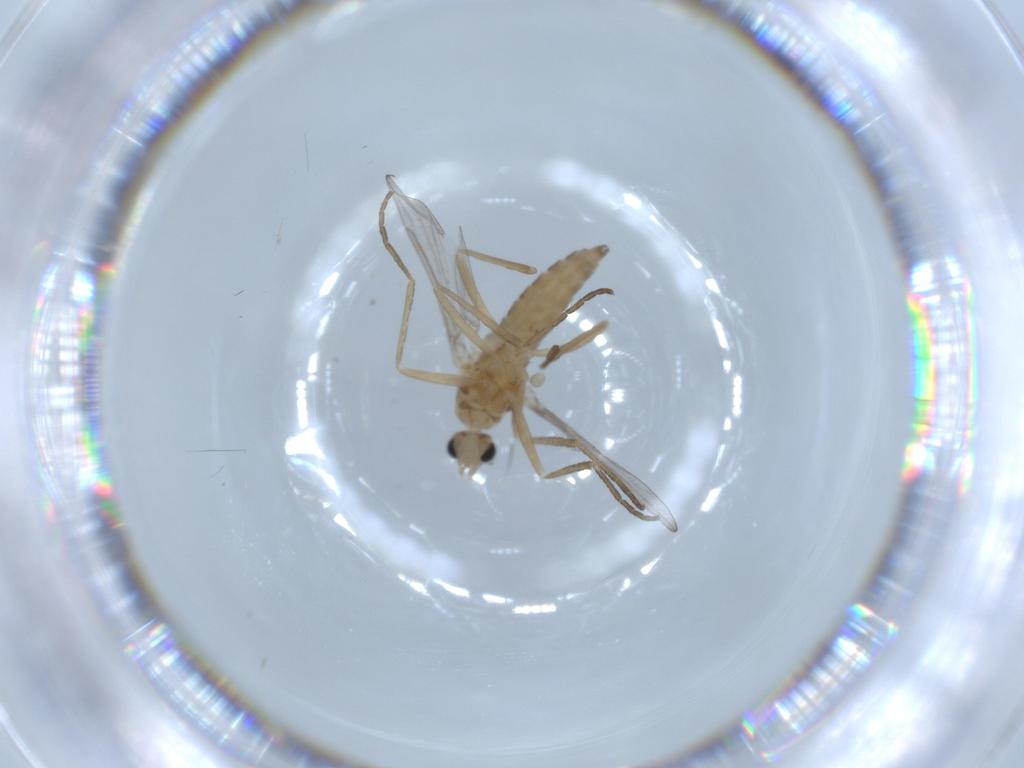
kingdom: Animalia
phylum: Arthropoda
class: Insecta
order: Diptera
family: Cecidomyiidae
